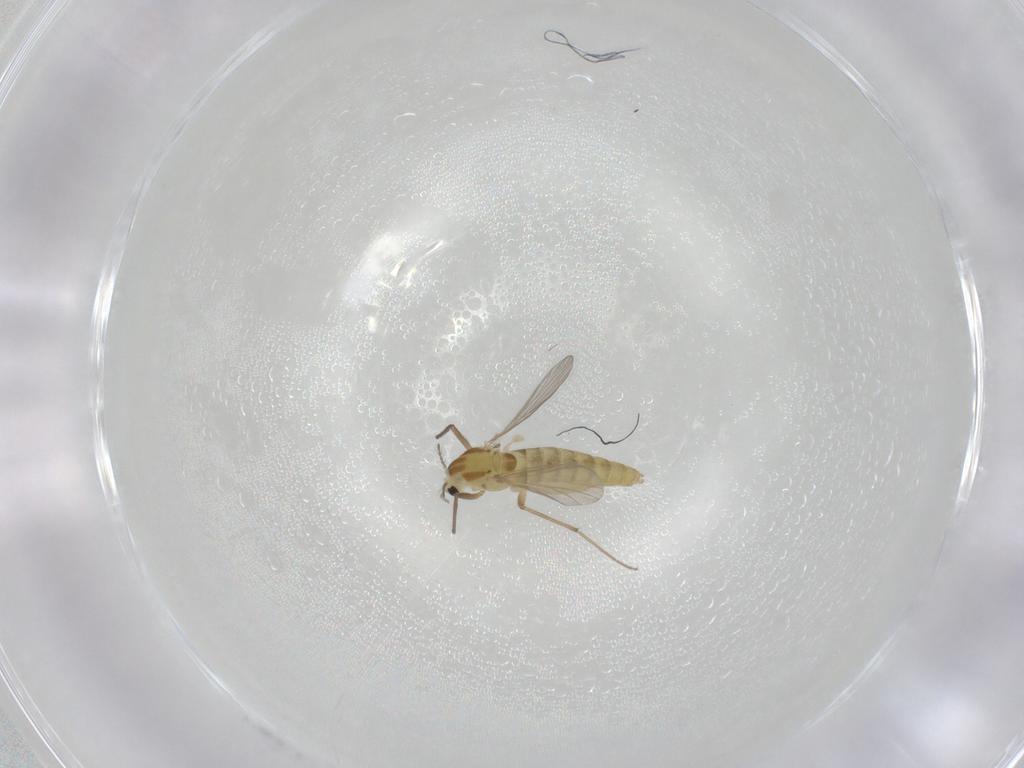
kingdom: Animalia
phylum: Arthropoda
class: Insecta
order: Diptera
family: Chironomidae
